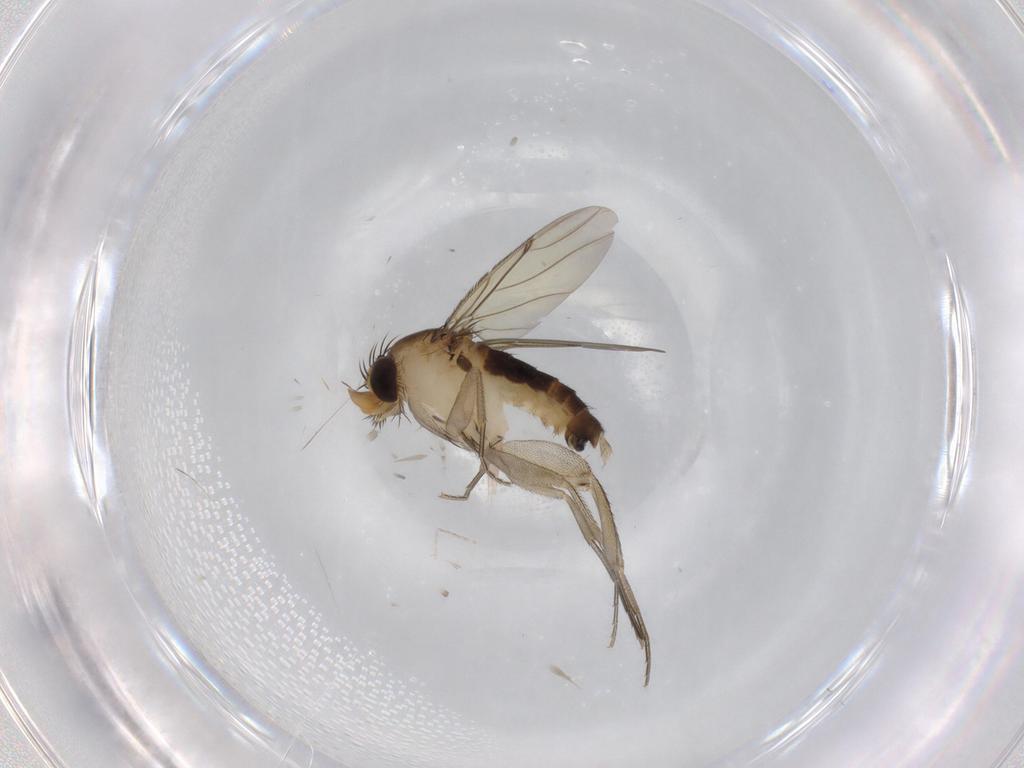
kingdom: Animalia
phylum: Arthropoda
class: Insecta
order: Diptera
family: Phoridae
